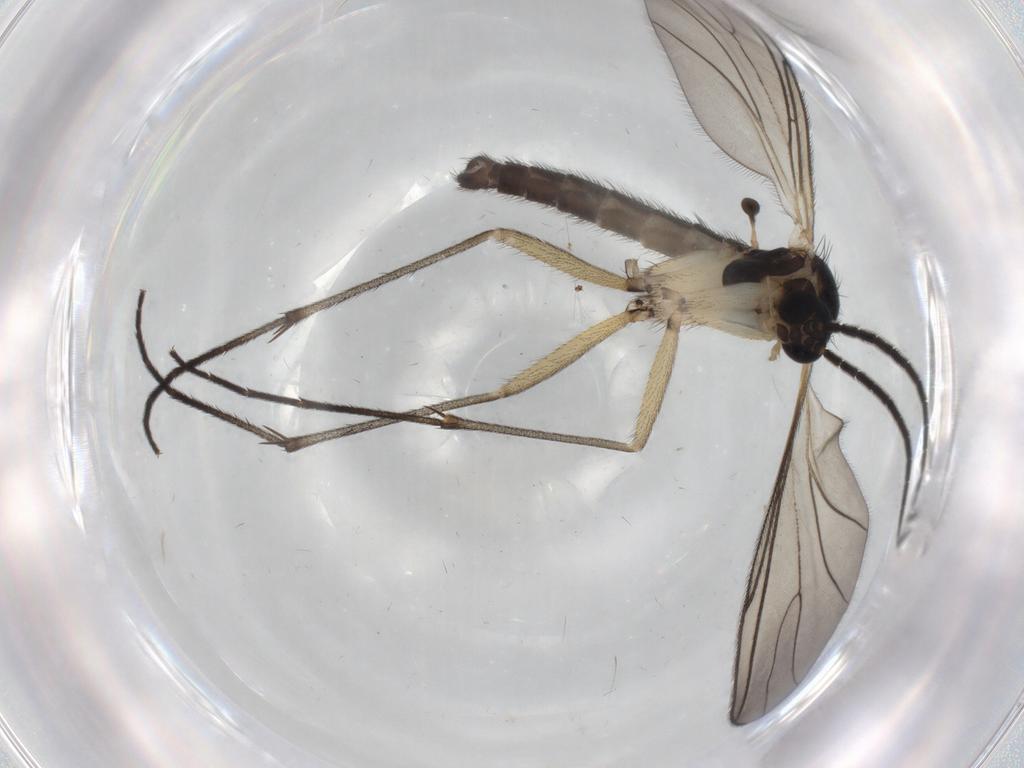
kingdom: Animalia
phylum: Arthropoda
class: Insecta
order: Diptera
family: Sciaridae
